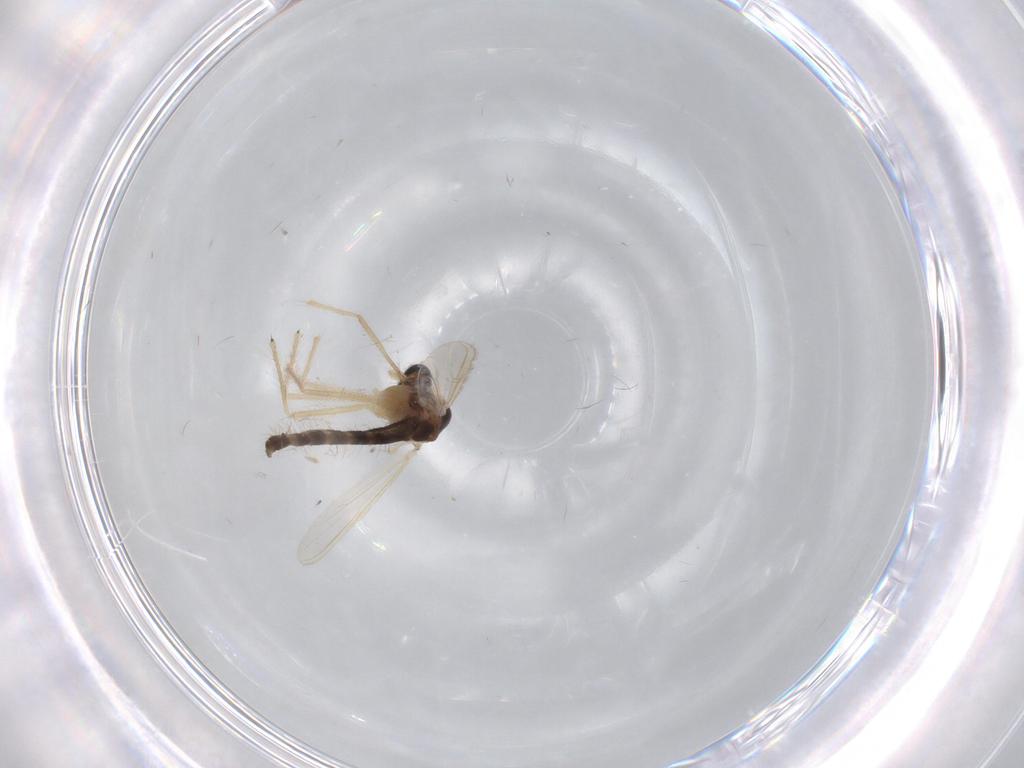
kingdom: Animalia
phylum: Arthropoda
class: Insecta
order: Diptera
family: Chironomidae
